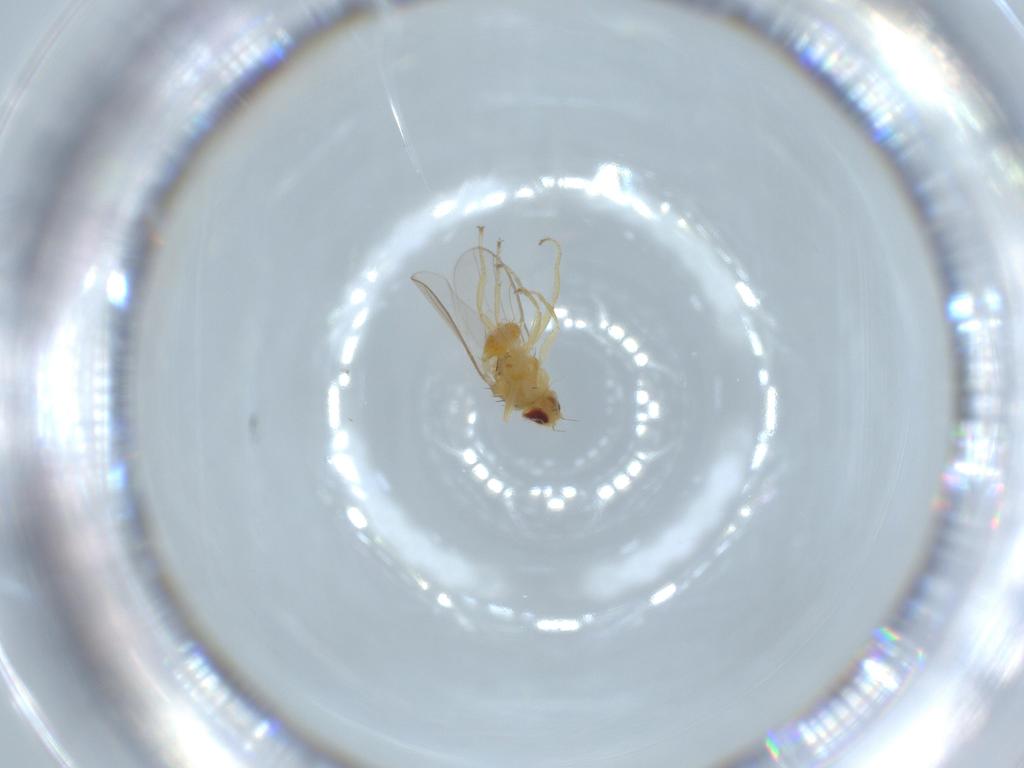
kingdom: Animalia
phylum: Arthropoda
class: Insecta
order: Diptera
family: Chloropidae
